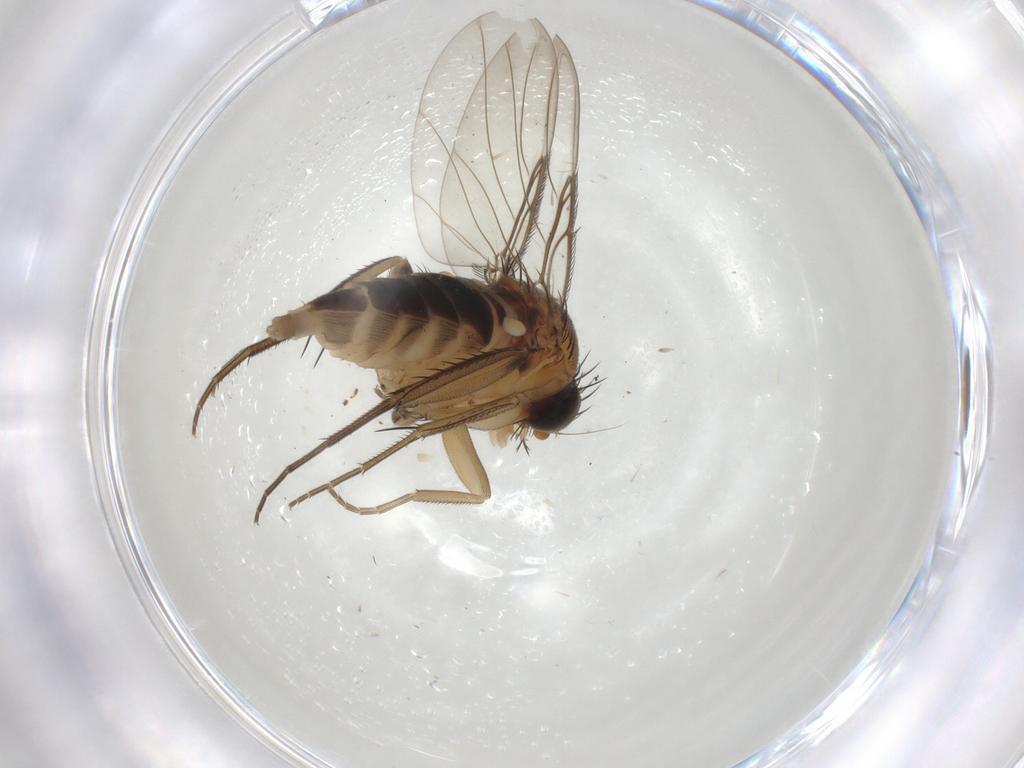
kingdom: Animalia
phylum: Arthropoda
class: Insecta
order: Diptera
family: Phoridae
